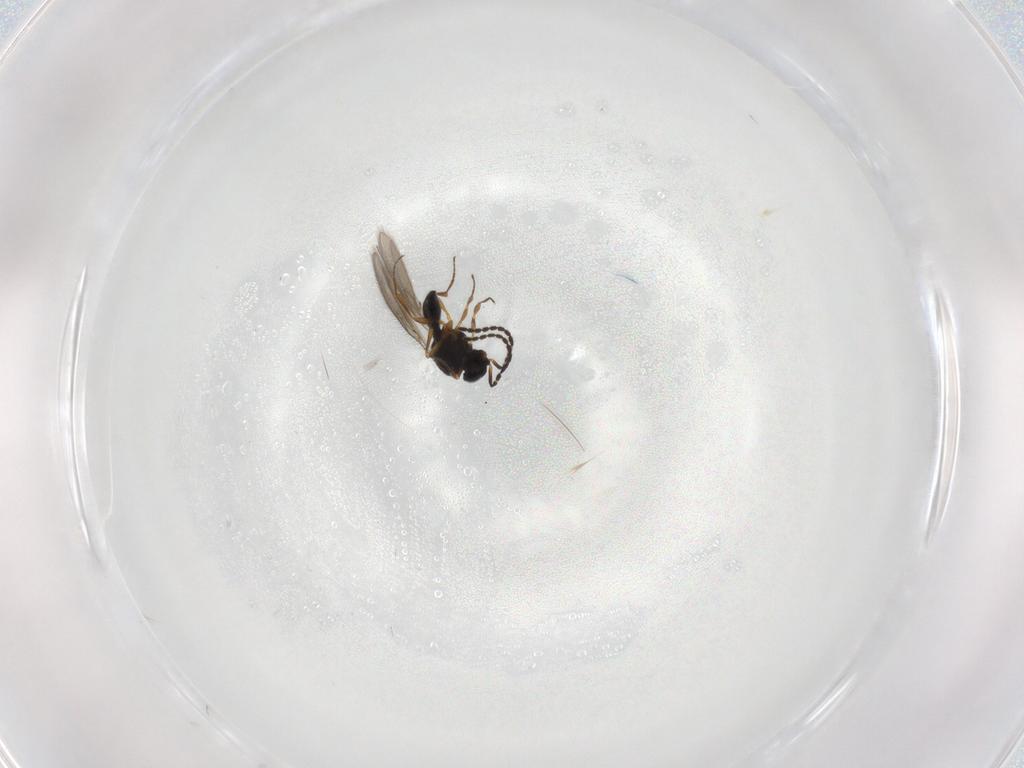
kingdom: Animalia
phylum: Arthropoda
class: Insecta
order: Hymenoptera
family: Scelionidae
